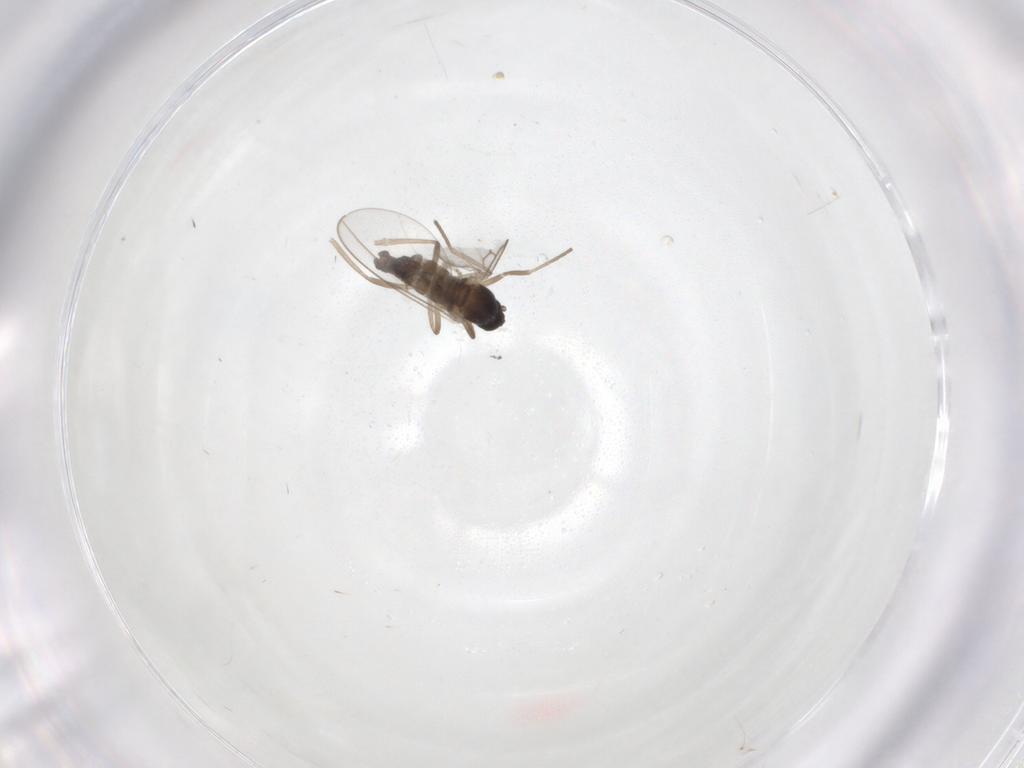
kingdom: Animalia
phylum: Arthropoda
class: Insecta
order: Diptera
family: Cecidomyiidae
